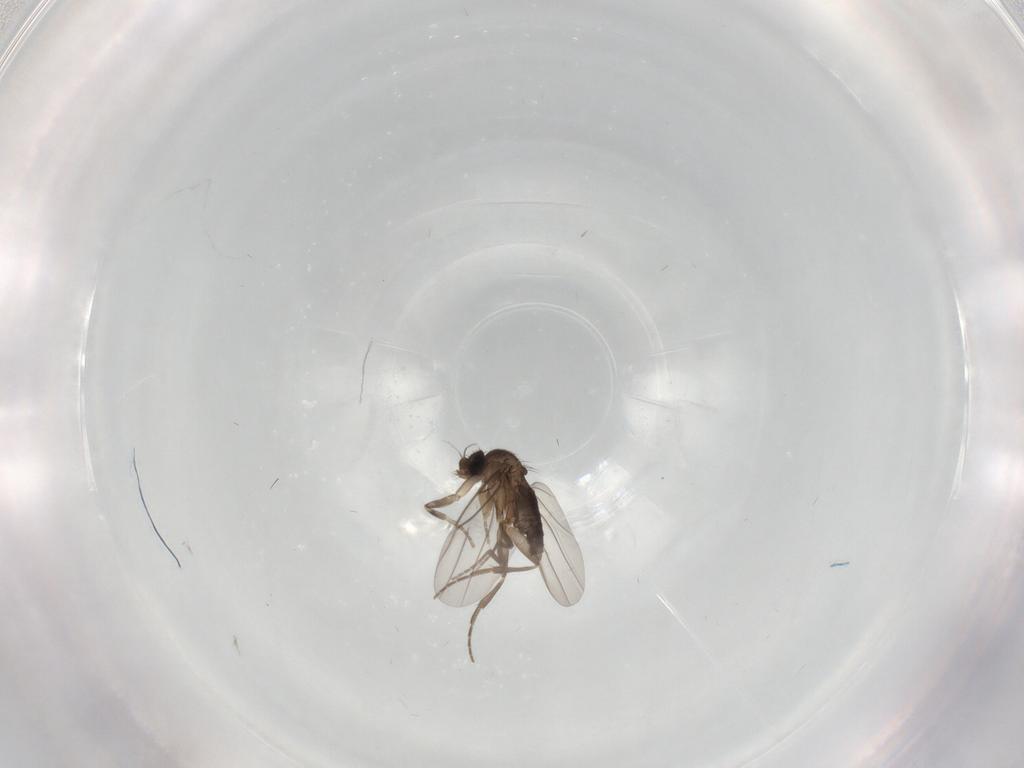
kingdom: Animalia
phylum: Arthropoda
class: Insecta
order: Diptera
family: Phoridae
